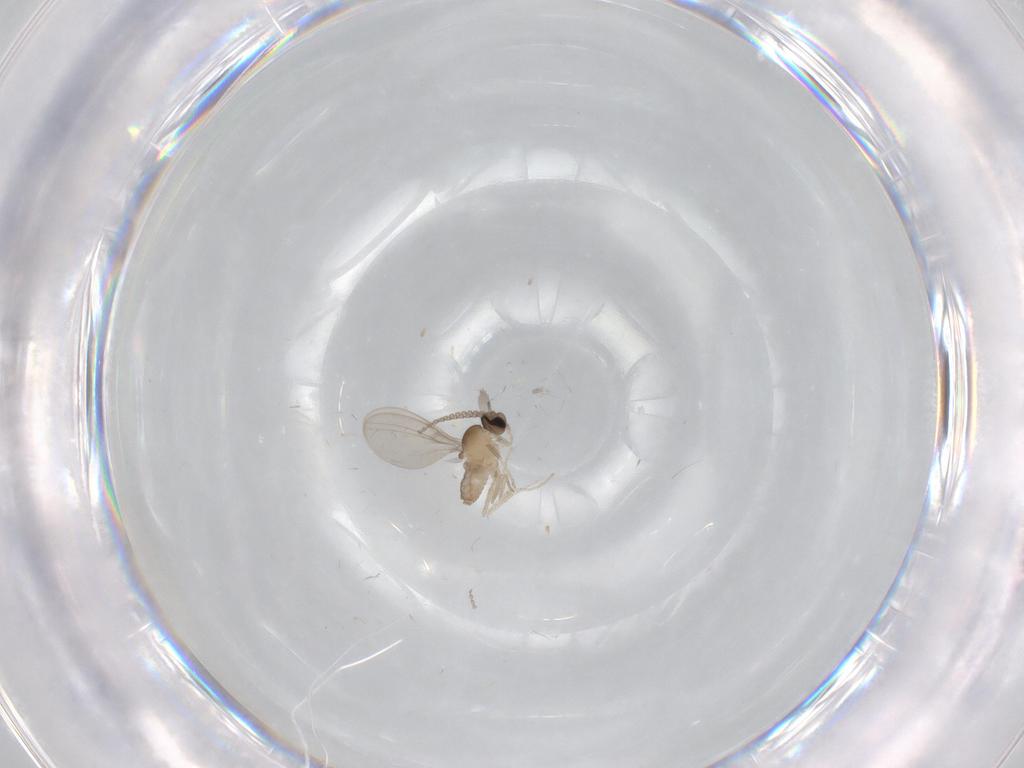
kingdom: Animalia
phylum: Arthropoda
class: Insecta
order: Diptera
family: Cecidomyiidae
